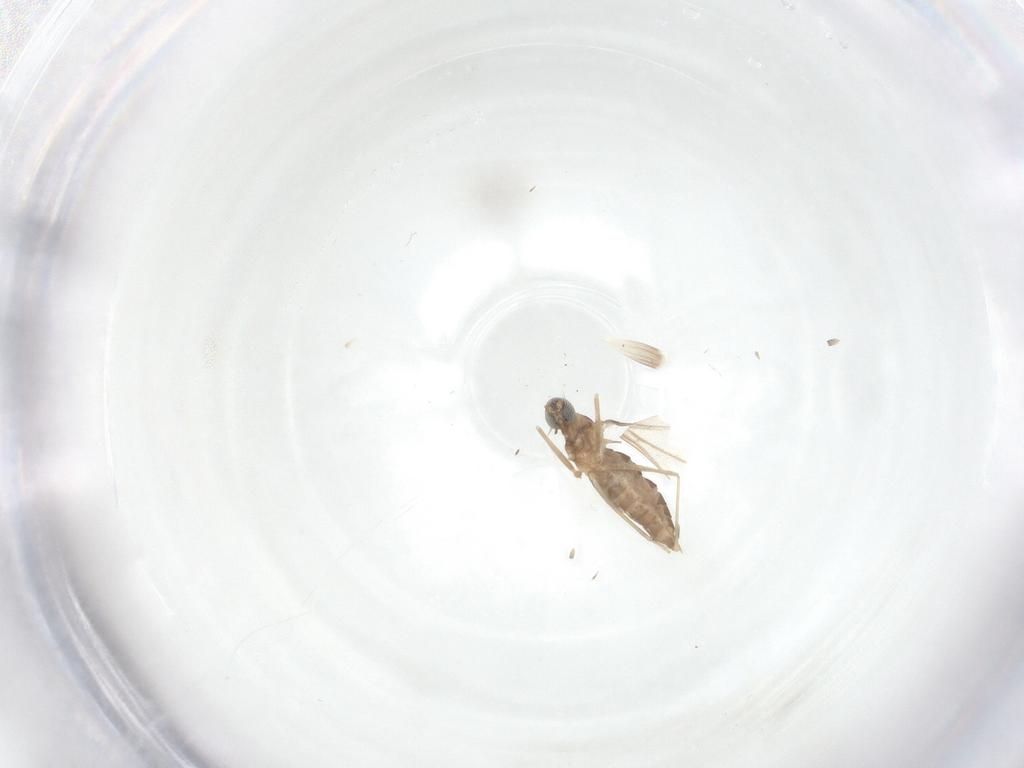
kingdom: Animalia
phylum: Arthropoda
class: Insecta
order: Diptera
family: Cecidomyiidae
